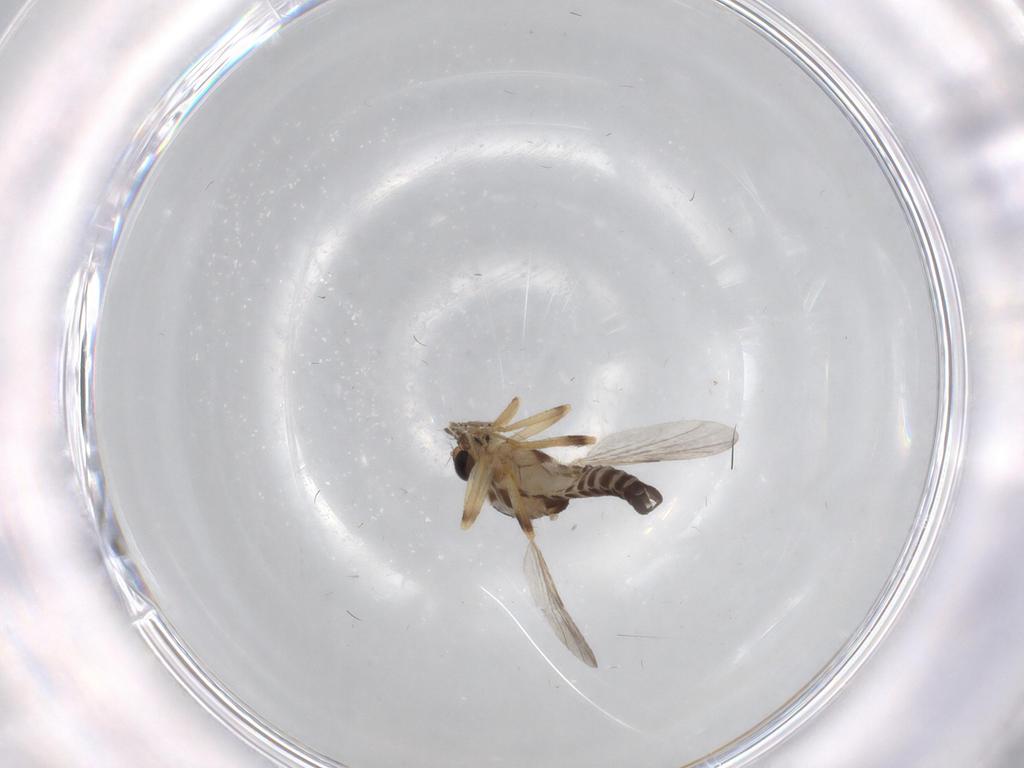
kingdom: Animalia
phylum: Arthropoda
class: Insecta
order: Diptera
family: Ceratopogonidae
